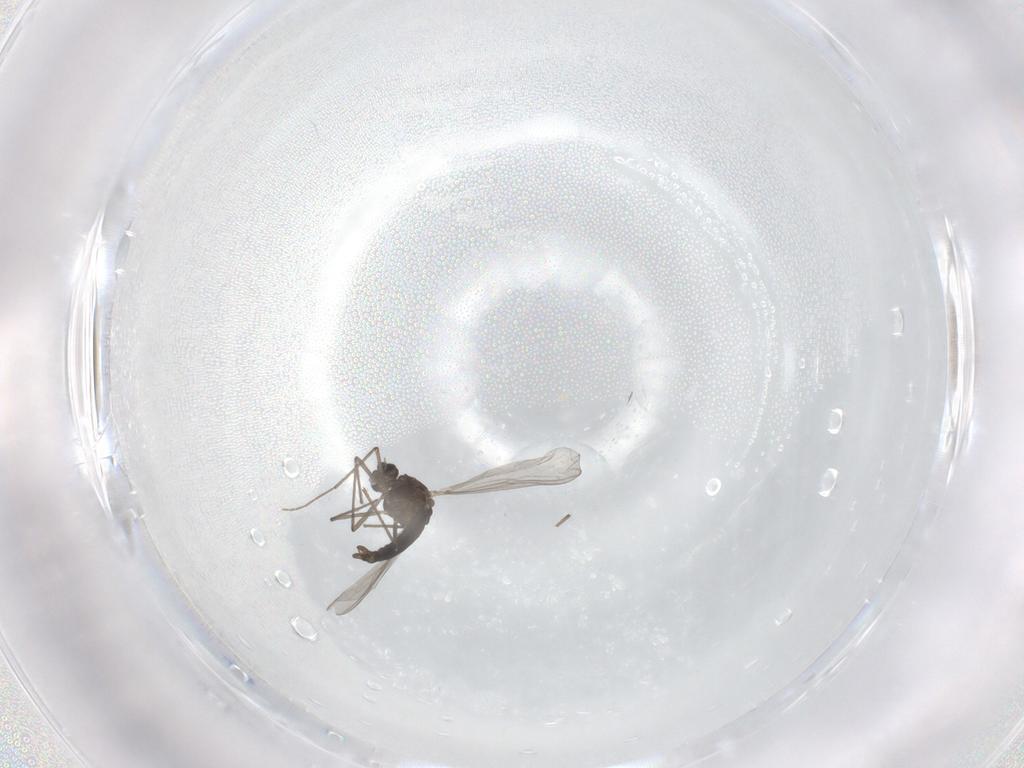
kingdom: Animalia
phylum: Arthropoda
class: Insecta
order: Diptera
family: Chironomidae
